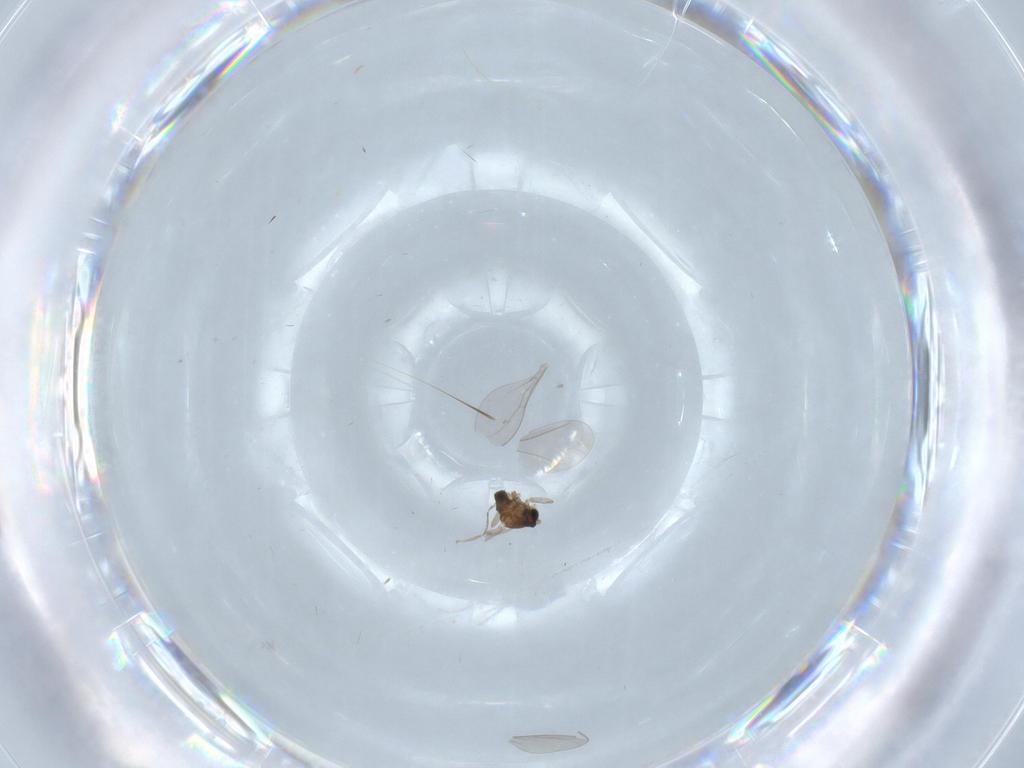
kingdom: Animalia
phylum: Arthropoda
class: Insecta
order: Diptera
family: Cecidomyiidae
